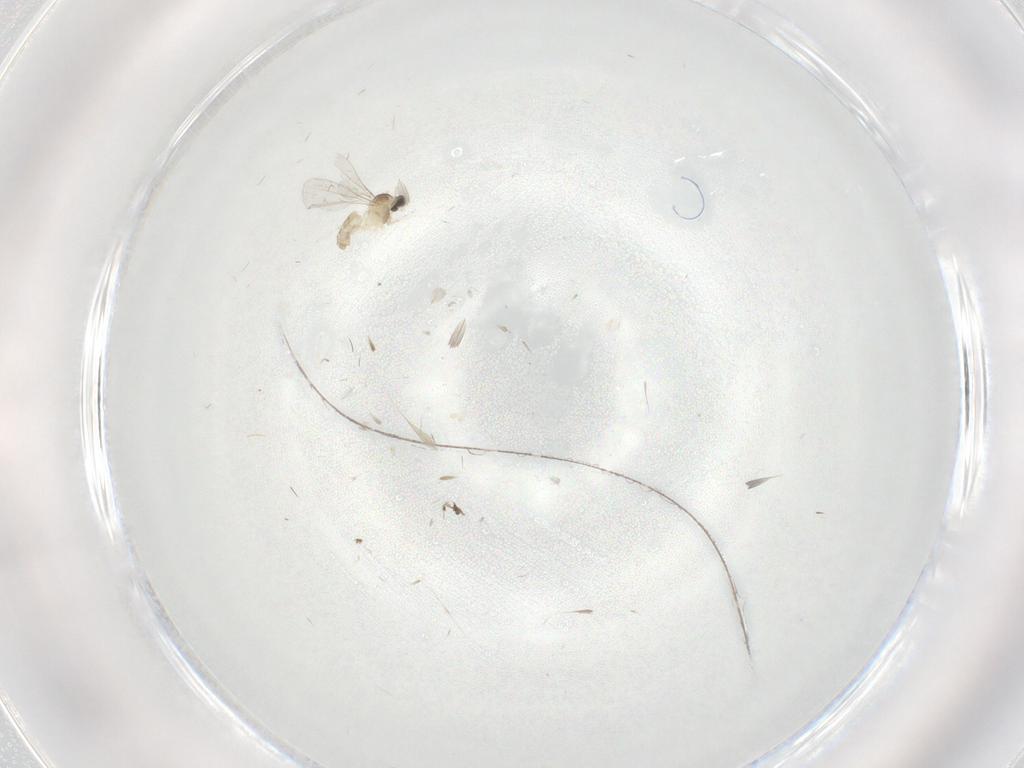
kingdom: Animalia
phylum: Arthropoda
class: Insecta
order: Diptera
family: Cecidomyiidae
